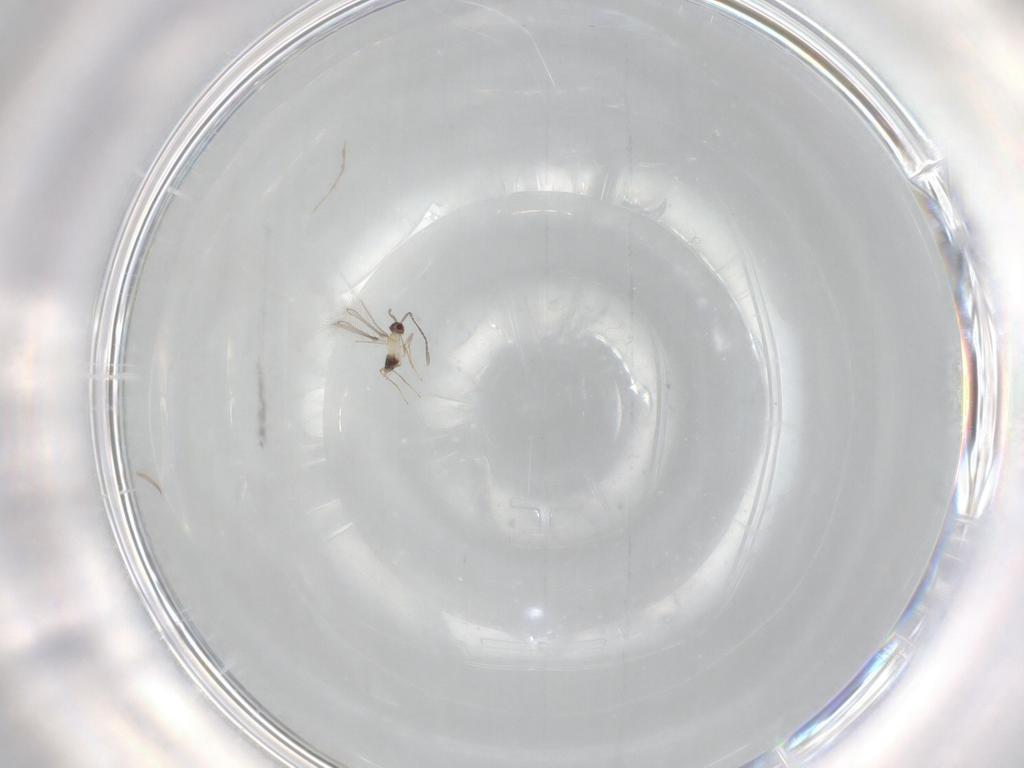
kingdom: Animalia
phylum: Arthropoda
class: Insecta
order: Hymenoptera
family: Mymaridae
